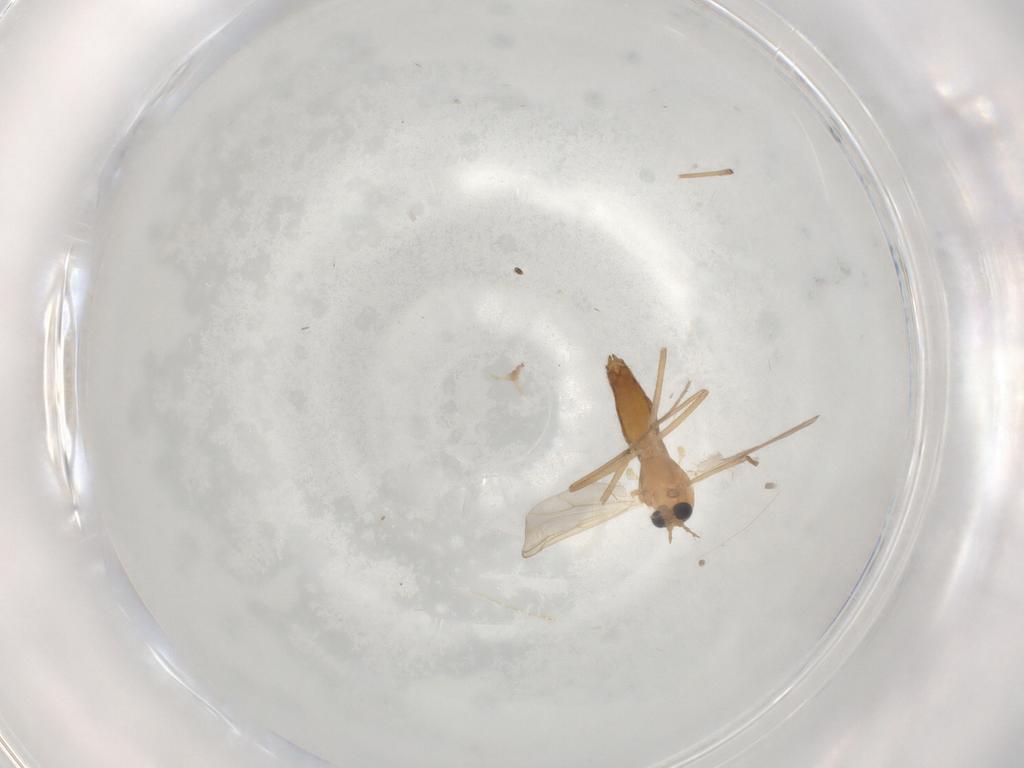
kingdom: Animalia
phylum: Arthropoda
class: Insecta
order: Diptera
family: Chironomidae
